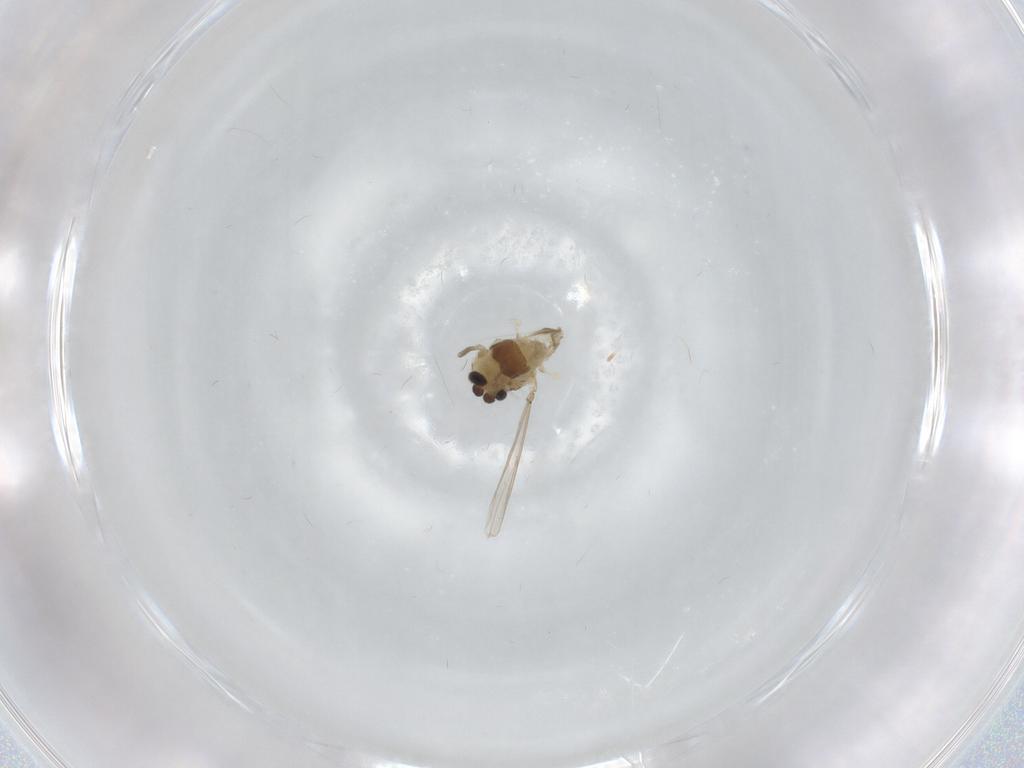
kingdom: Animalia
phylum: Arthropoda
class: Insecta
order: Diptera
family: Chironomidae
